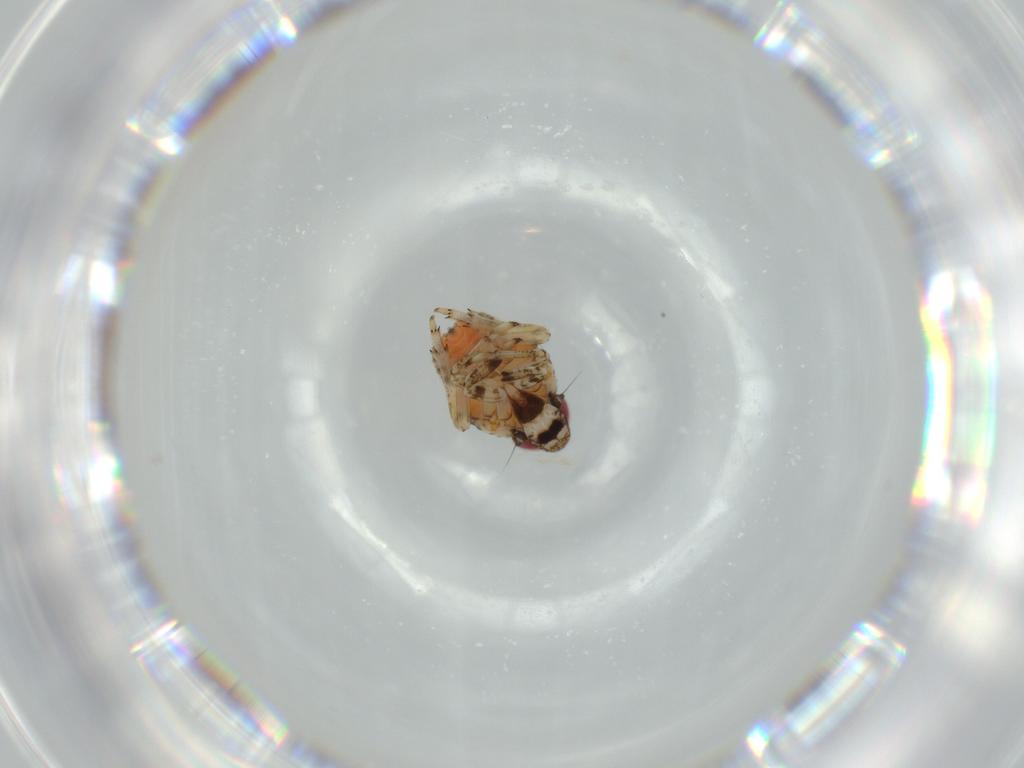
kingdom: Animalia
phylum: Arthropoda
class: Insecta
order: Hemiptera
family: Issidae
